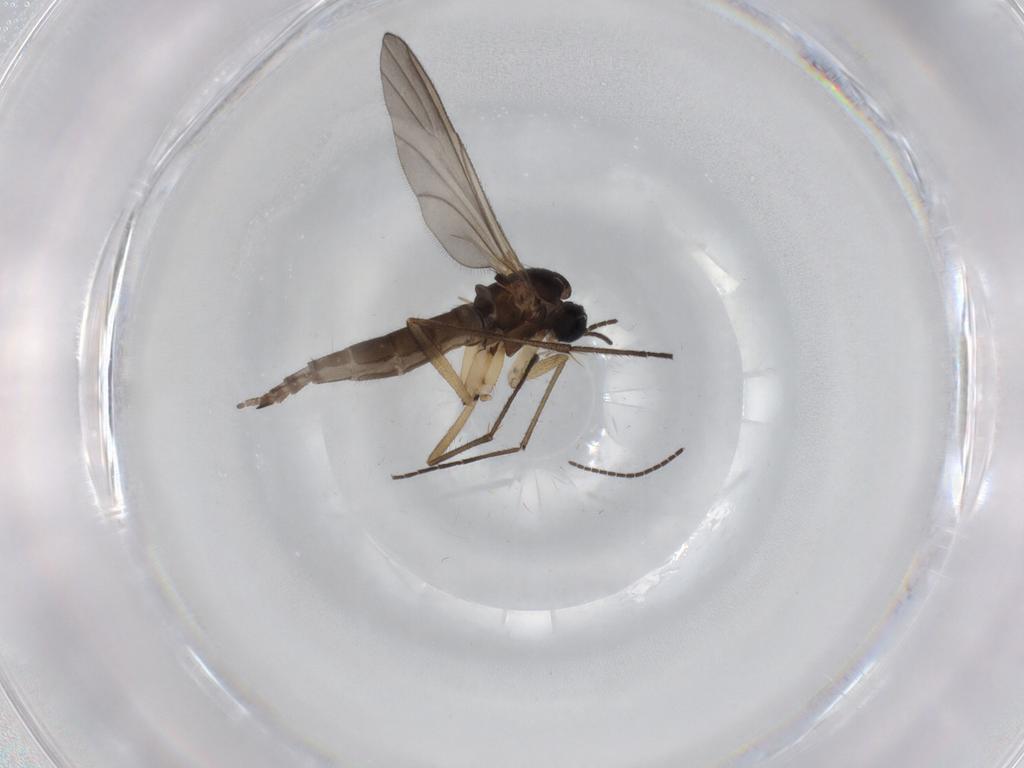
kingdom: Animalia
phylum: Arthropoda
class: Insecta
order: Diptera
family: Sciaridae
